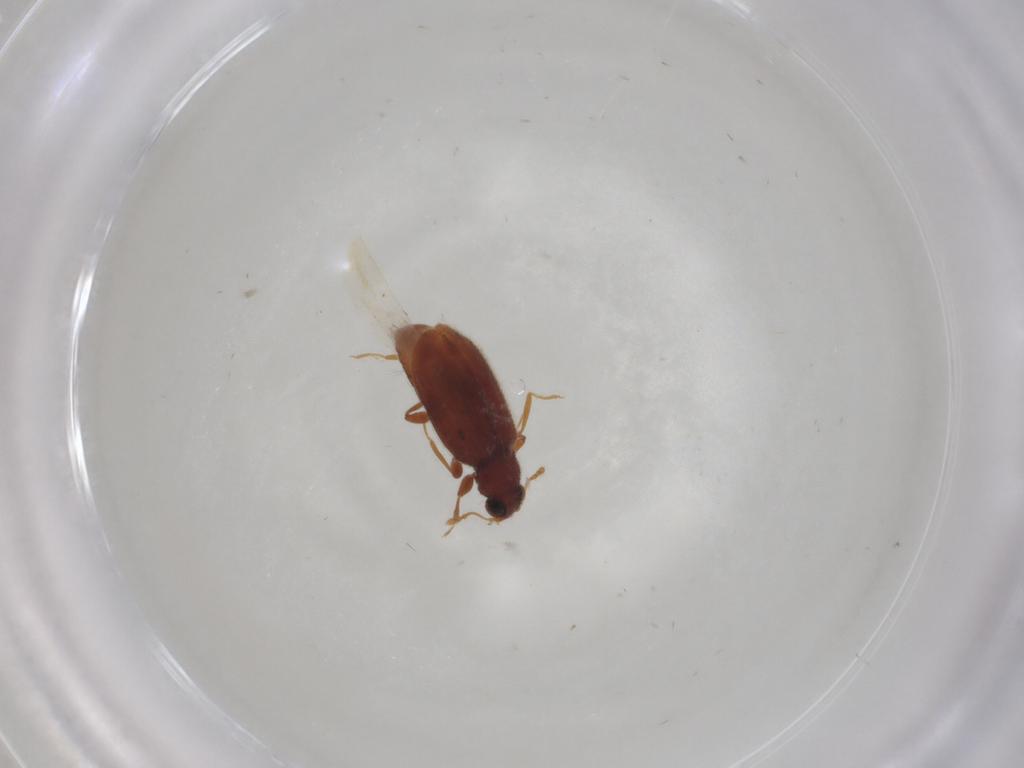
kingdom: Animalia
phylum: Arthropoda
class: Insecta
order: Coleoptera
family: Latridiidae
